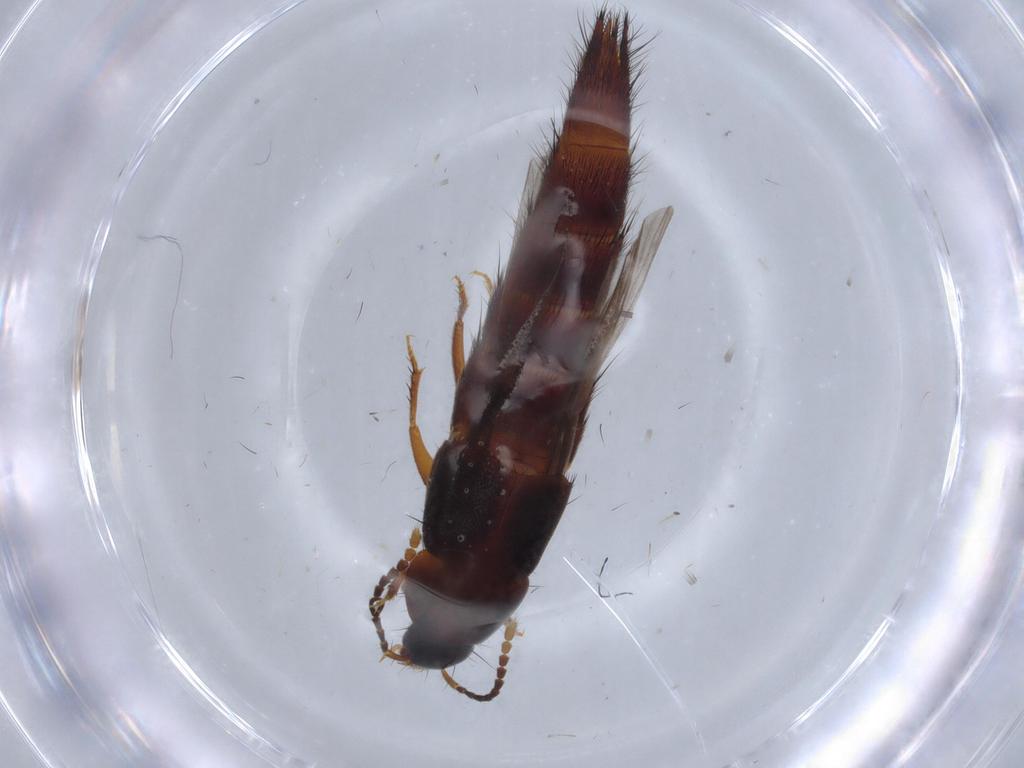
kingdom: Animalia
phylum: Arthropoda
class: Insecta
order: Coleoptera
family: Staphylinidae
